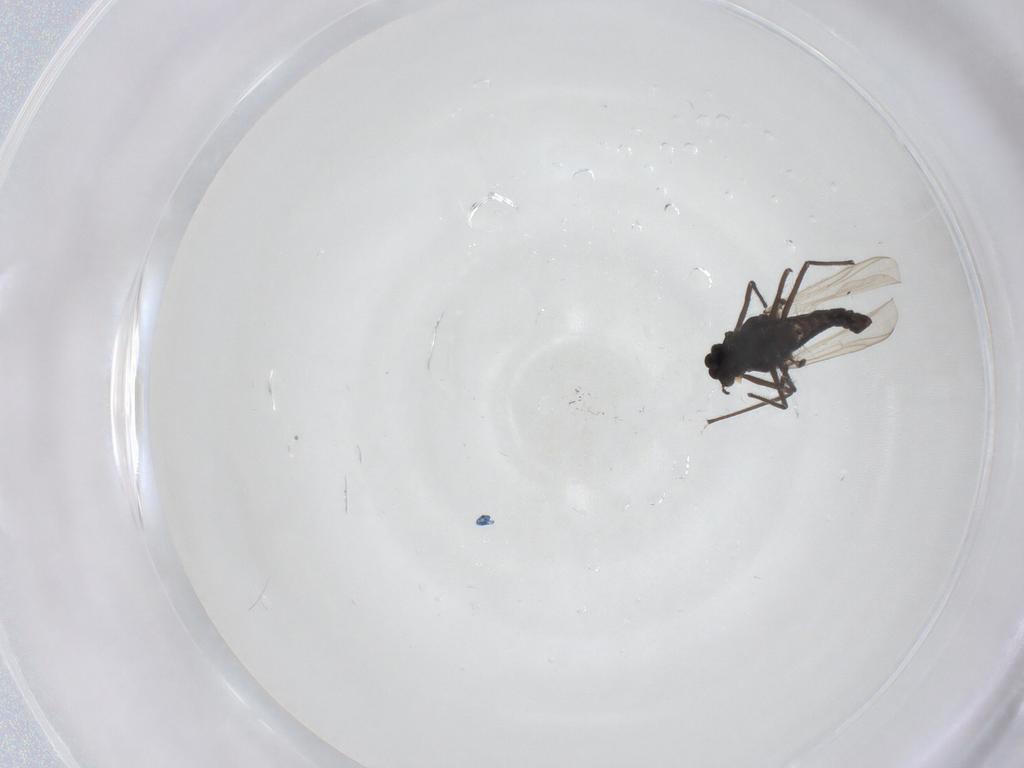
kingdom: Animalia
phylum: Arthropoda
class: Insecta
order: Diptera
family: Sciaridae
